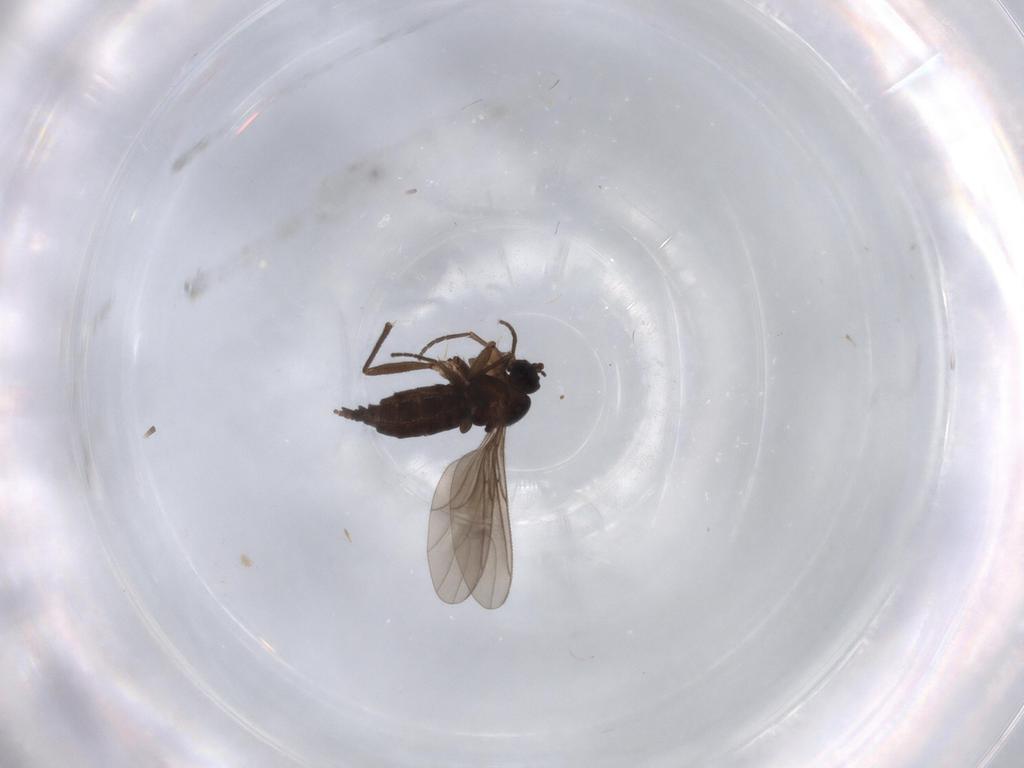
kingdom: Animalia
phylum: Arthropoda
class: Insecta
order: Diptera
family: Sciaridae
